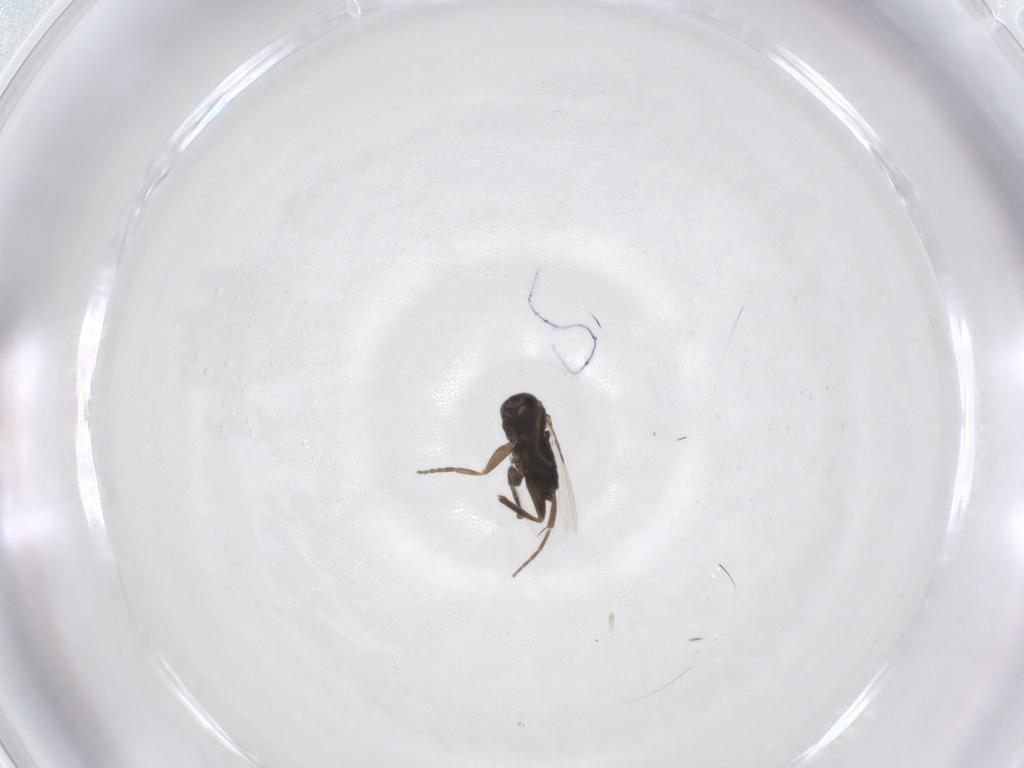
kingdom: Animalia
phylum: Arthropoda
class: Insecta
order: Diptera
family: Phoridae
